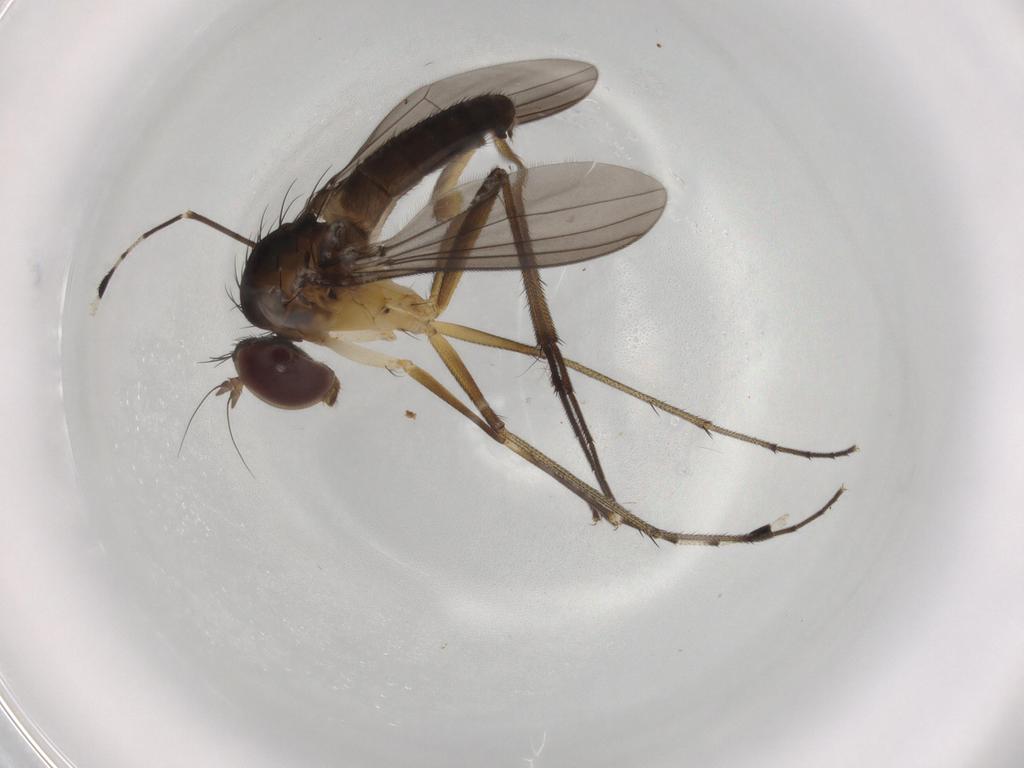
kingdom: Animalia
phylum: Arthropoda
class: Insecta
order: Diptera
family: Dolichopodidae
